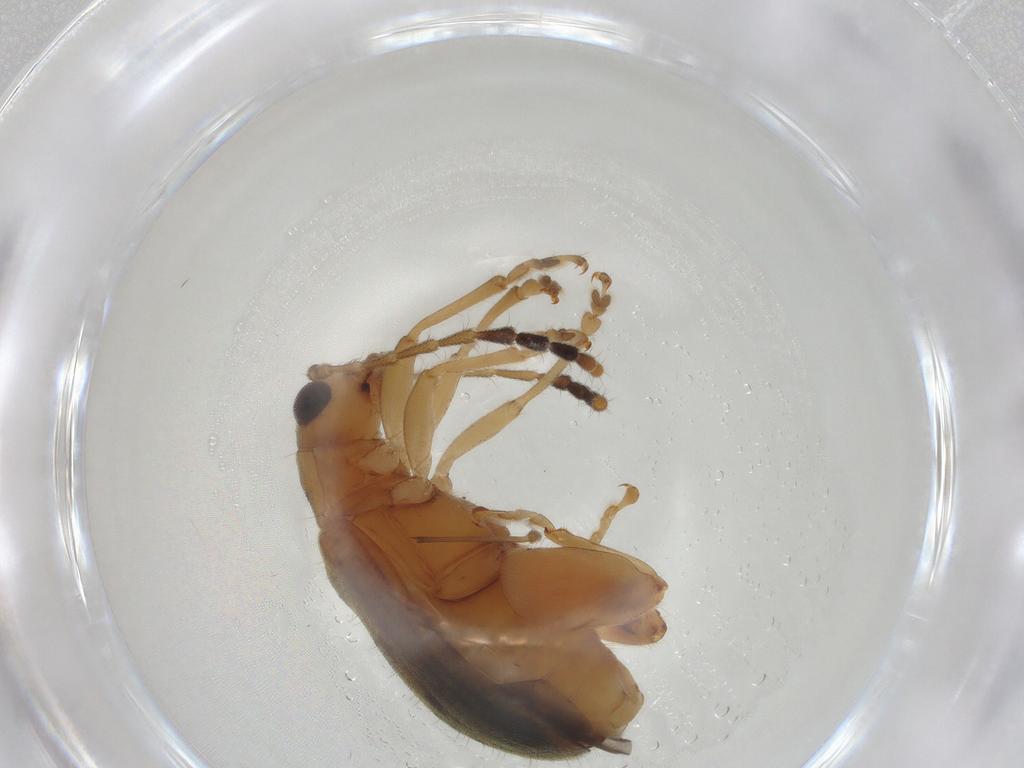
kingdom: Animalia
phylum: Arthropoda
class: Insecta
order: Coleoptera
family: Chrysomelidae
